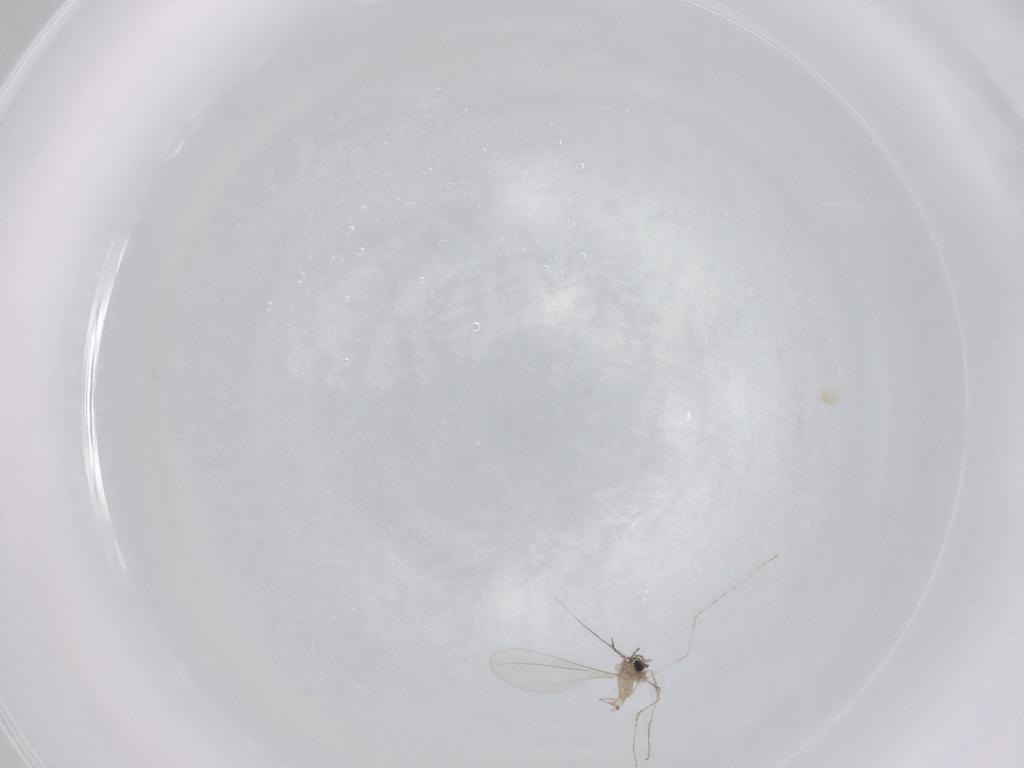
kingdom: Animalia
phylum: Arthropoda
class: Insecta
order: Diptera
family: Cecidomyiidae
